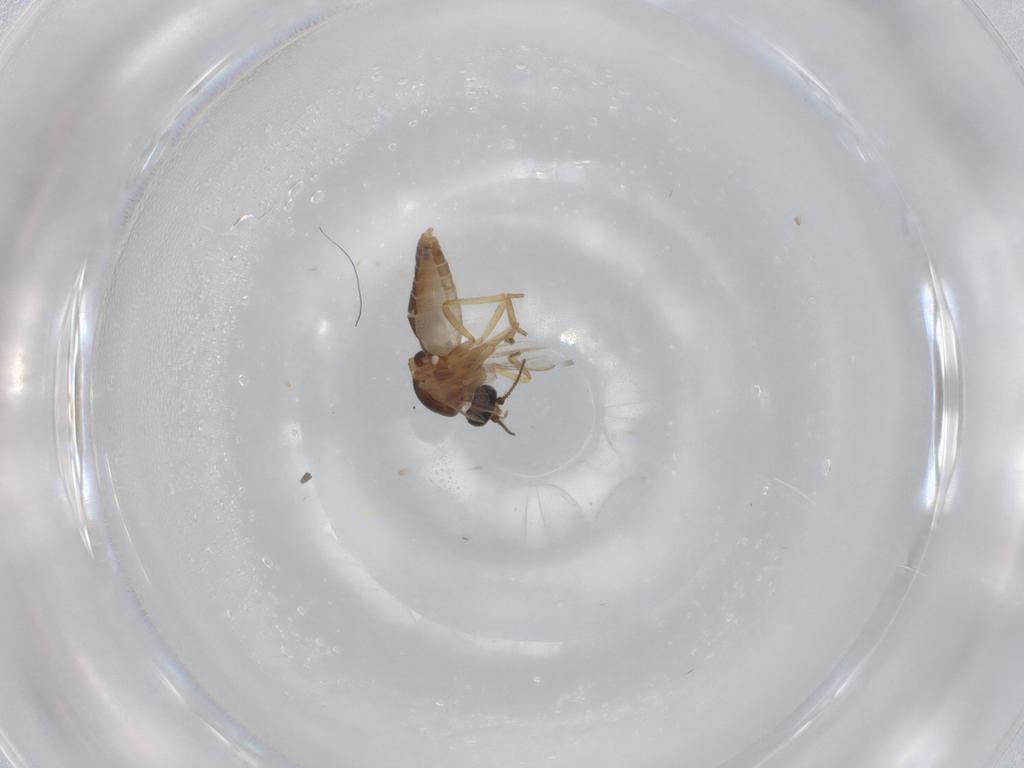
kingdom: Animalia
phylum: Arthropoda
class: Insecta
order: Diptera
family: Ceratopogonidae
